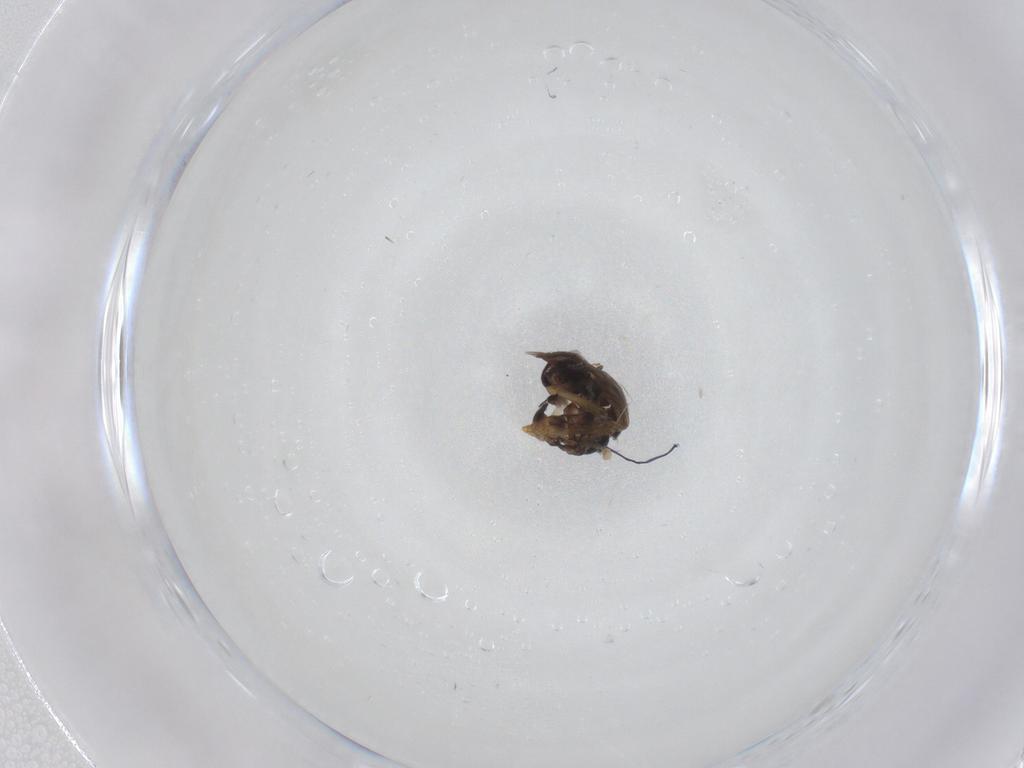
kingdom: Animalia
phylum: Arthropoda
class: Insecta
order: Diptera
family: Ceratopogonidae
